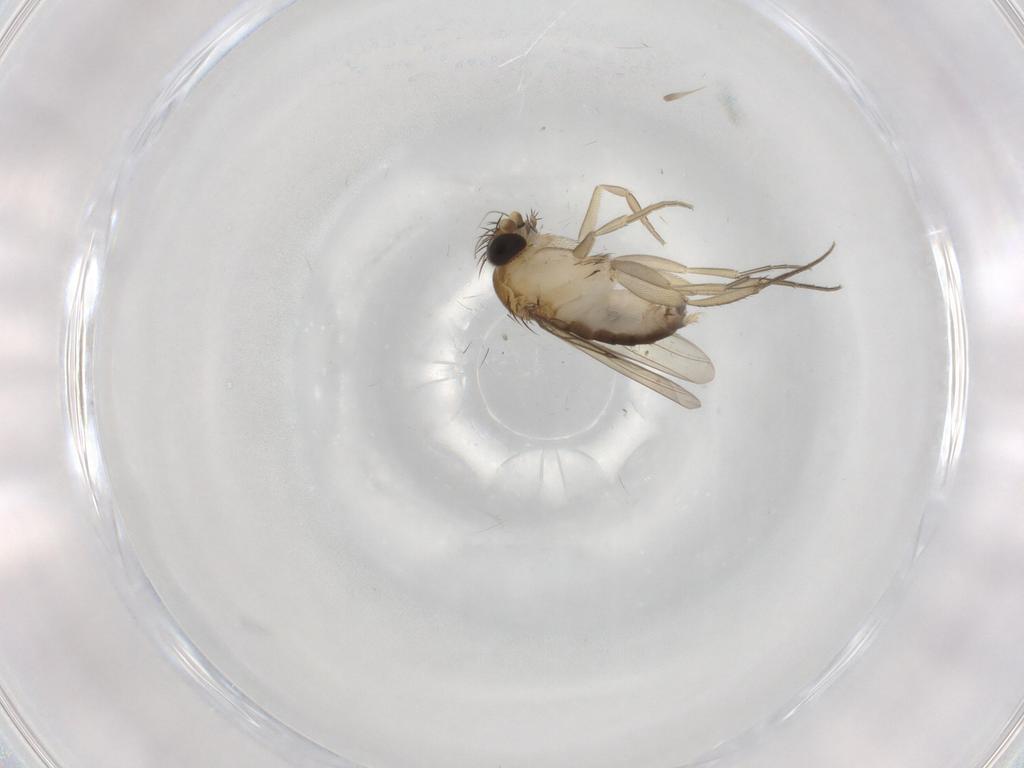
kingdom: Animalia
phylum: Arthropoda
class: Insecta
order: Diptera
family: Phoridae
